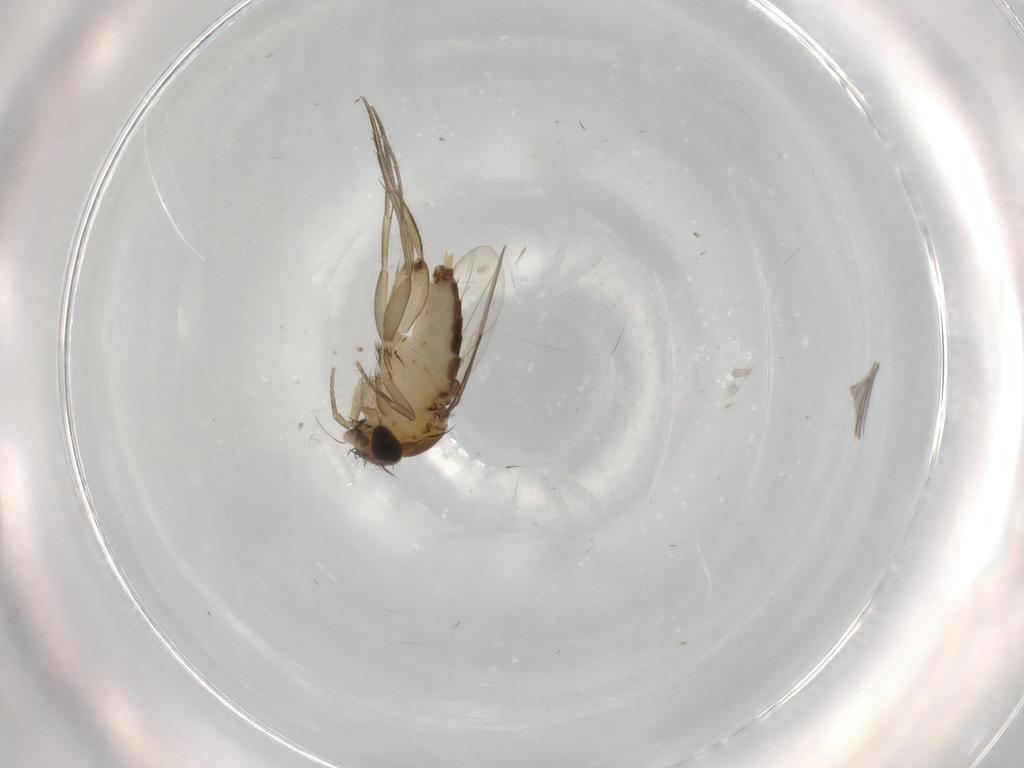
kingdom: Animalia
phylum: Arthropoda
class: Insecta
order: Diptera
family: Phoridae
